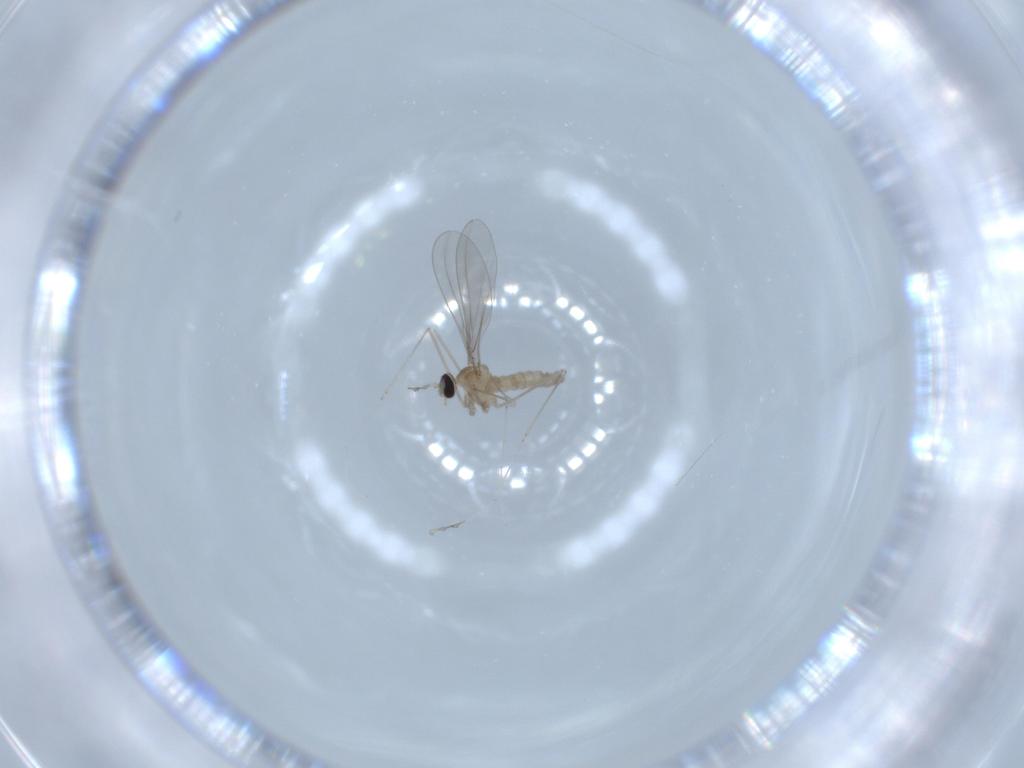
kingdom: Animalia
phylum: Arthropoda
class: Insecta
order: Diptera
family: Cecidomyiidae
